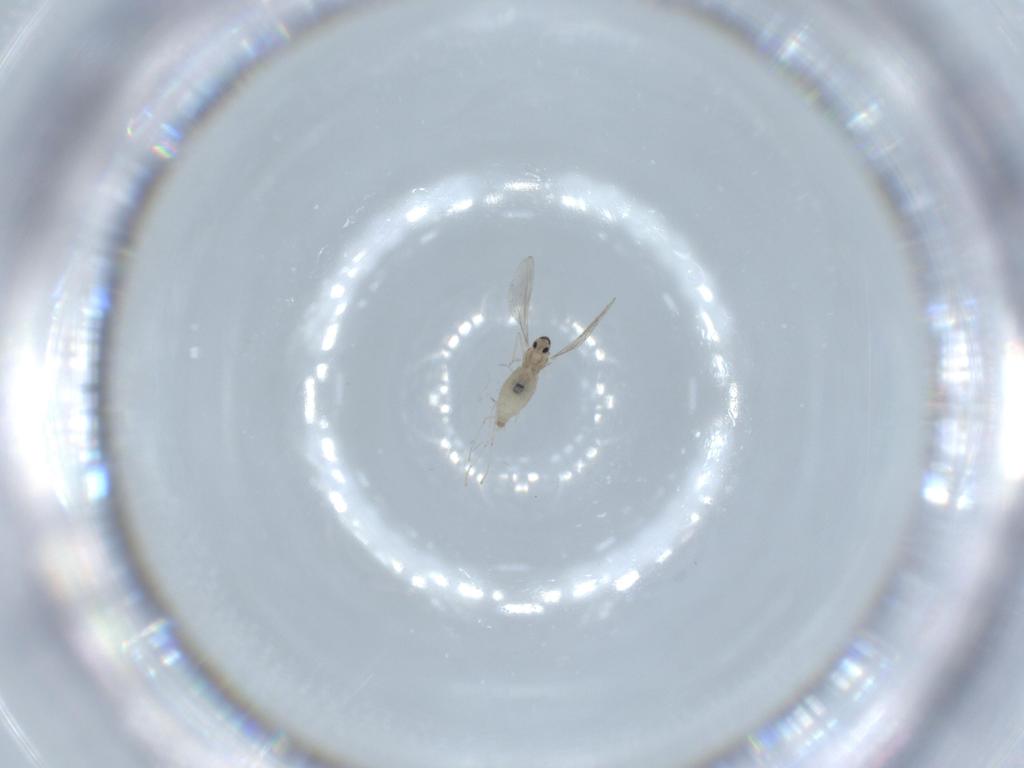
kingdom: Animalia
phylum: Arthropoda
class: Insecta
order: Diptera
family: Cecidomyiidae
